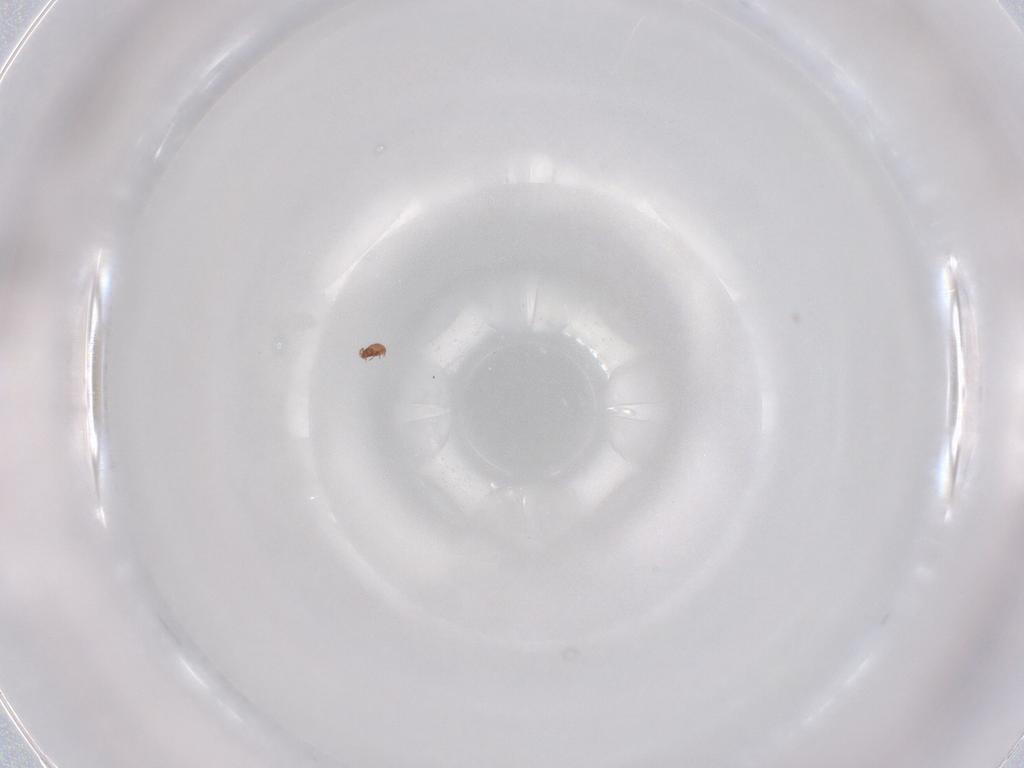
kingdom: Animalia
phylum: Arthropoda
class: Arachnida
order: Sarcoptiformes
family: Oppiidae
